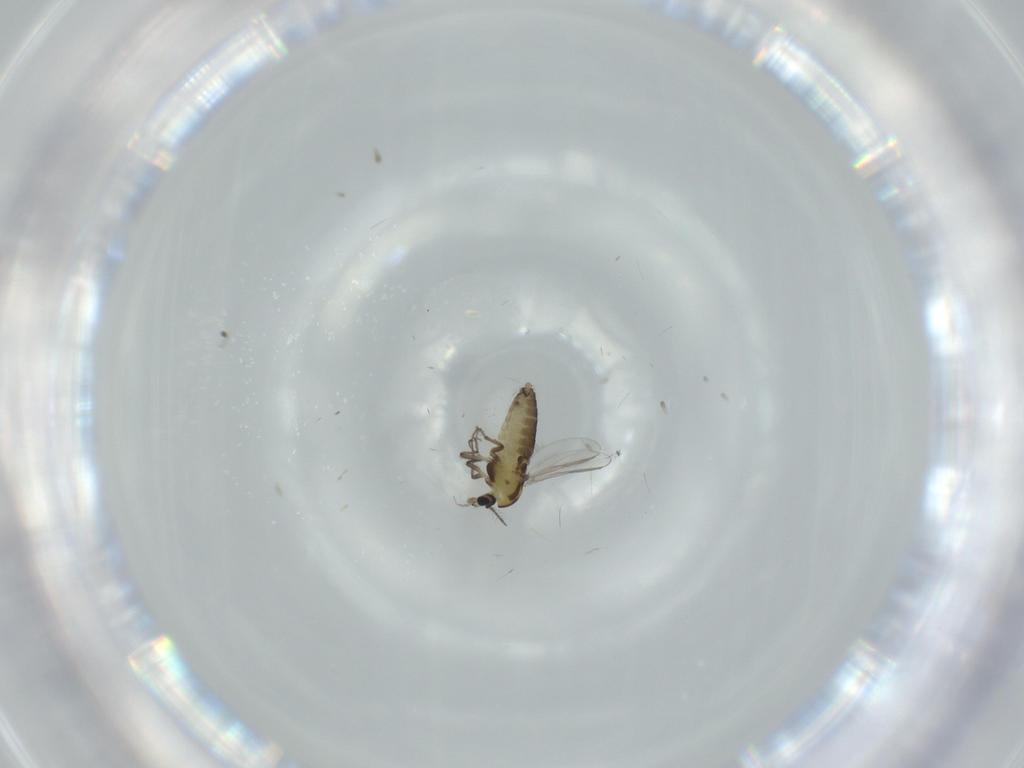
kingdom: Animalia
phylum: Arthropoda
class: Insecta
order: Diptera
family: Chironomidae
